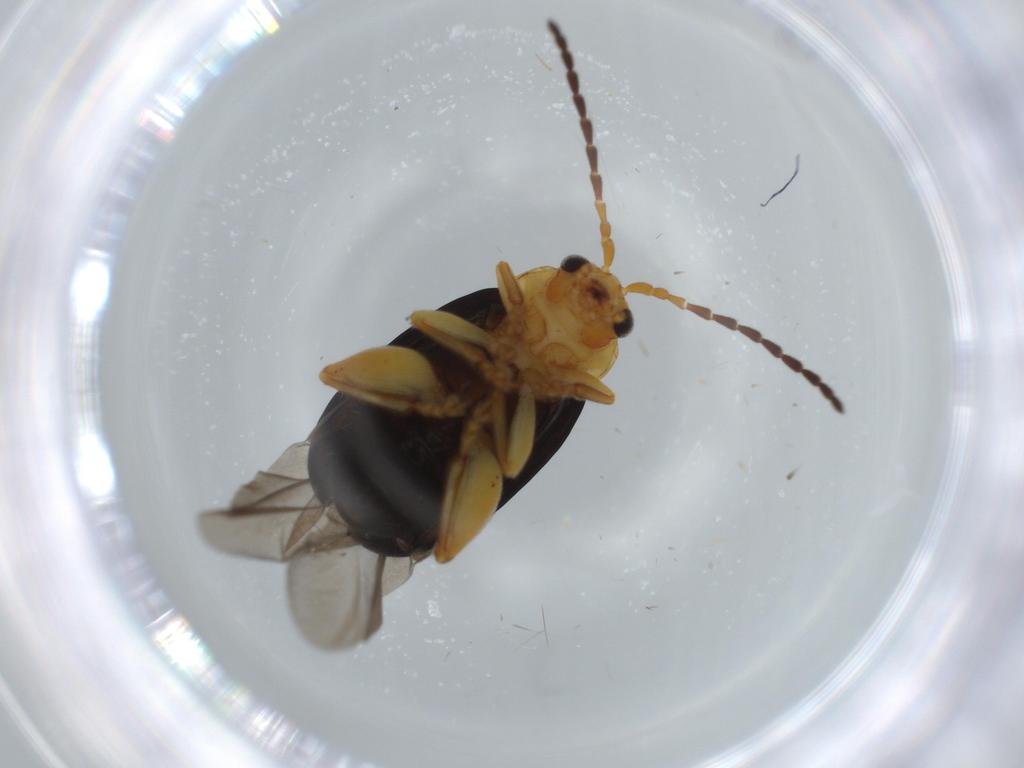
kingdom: Animalia
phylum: Arthropoda
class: Insecta
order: Coleoptera
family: Chrysomelidae
